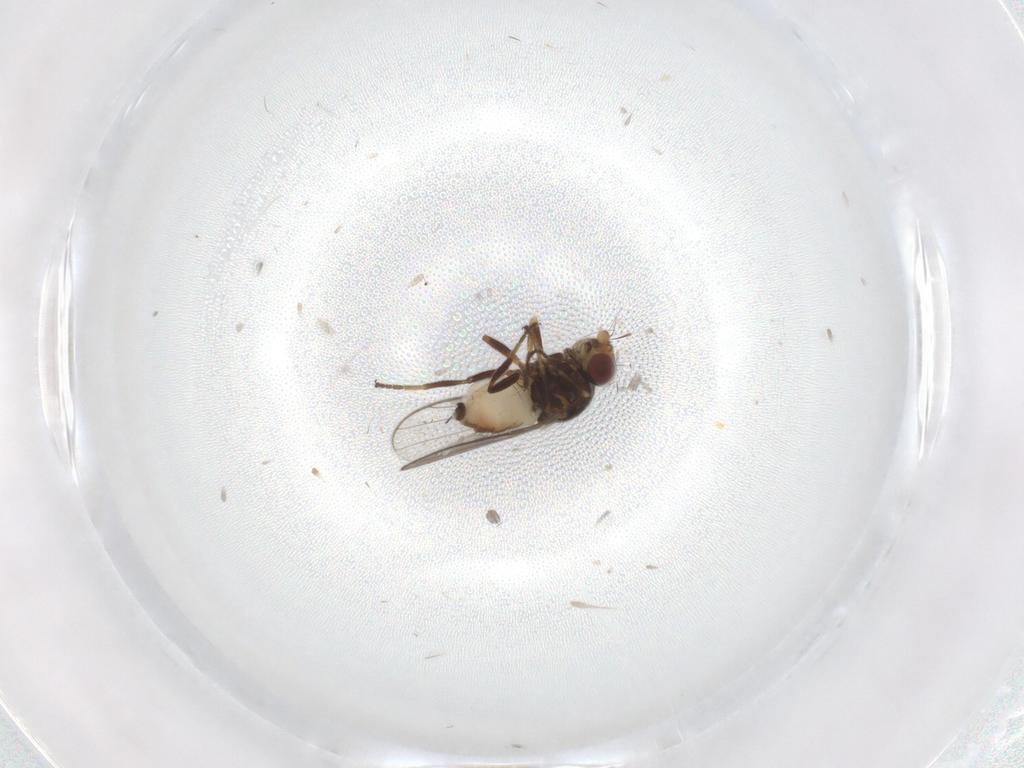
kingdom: Animalia
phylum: Arthropoda
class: Insecta
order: Diptera
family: Chloropidae
